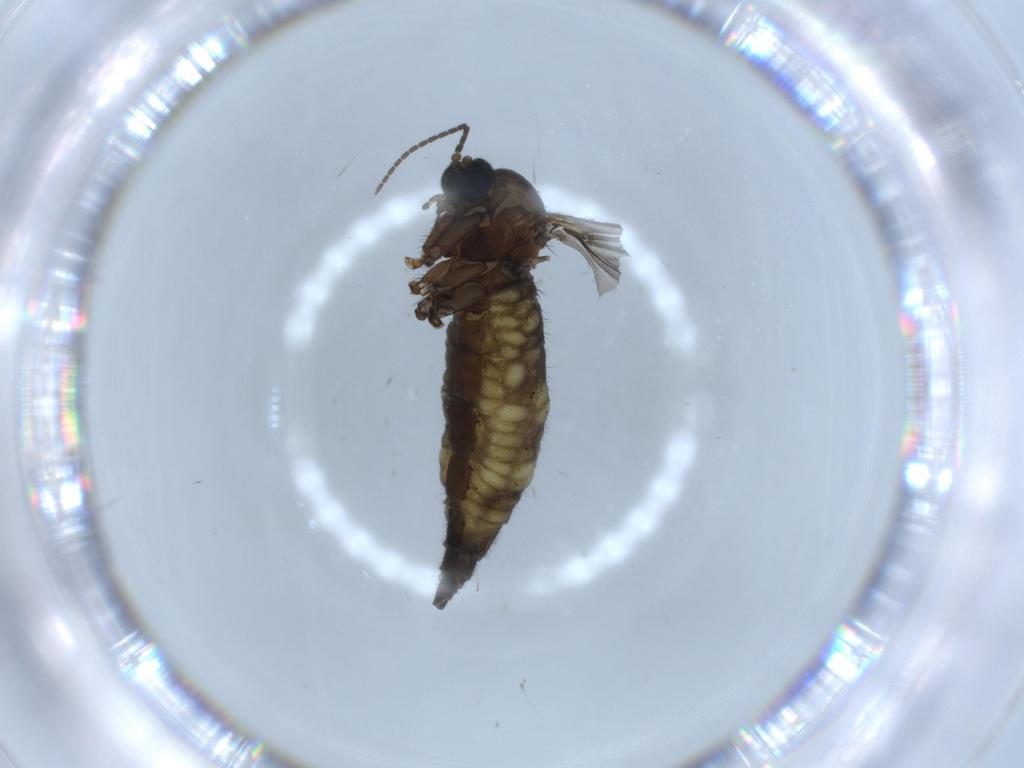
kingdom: Animalia
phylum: Arthropoda
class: Insecta
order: Diptera
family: Sciaridae
